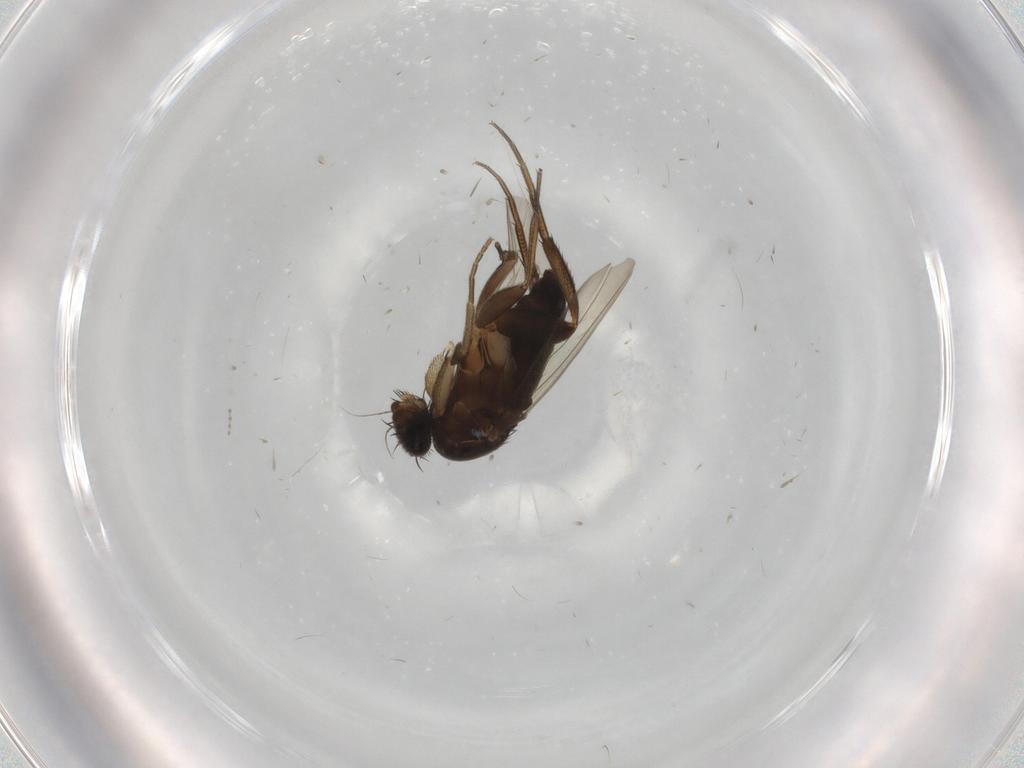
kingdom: Animalia
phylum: Arthropoda
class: Insecta
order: Diptera
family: Phoridae
